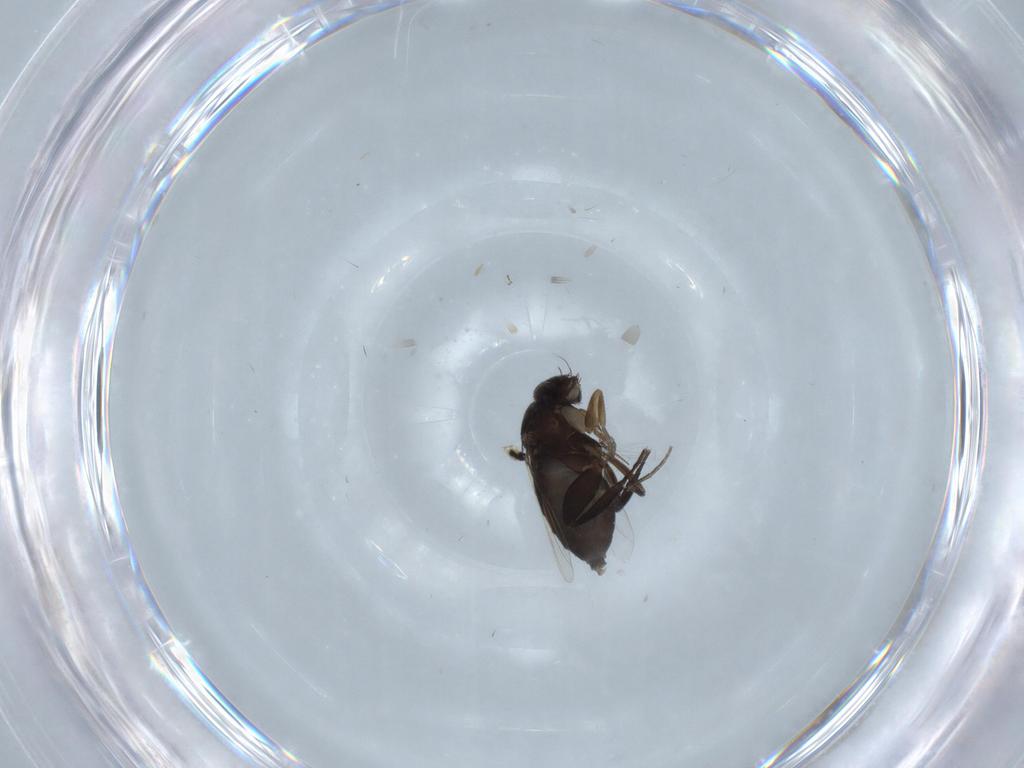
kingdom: Animalia
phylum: Arthropoda
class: Insecta
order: Diptera
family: Phoridae
